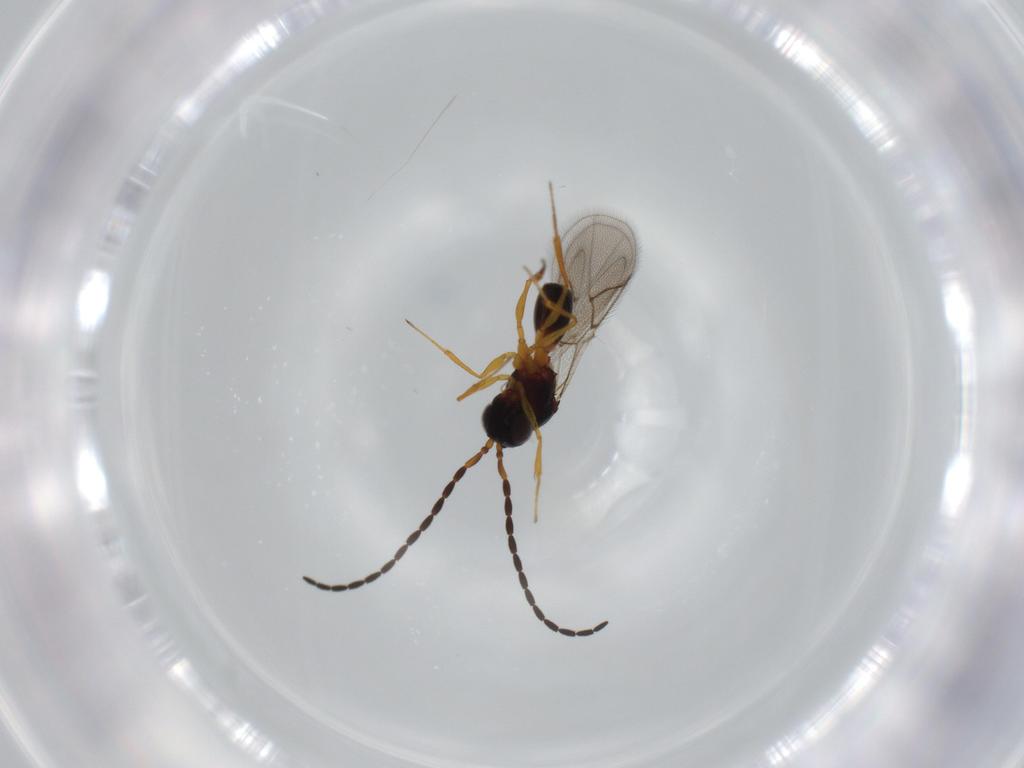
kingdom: Animalia
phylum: Arthropoda
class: Insecta
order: Hymenoptera
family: Figitidae
